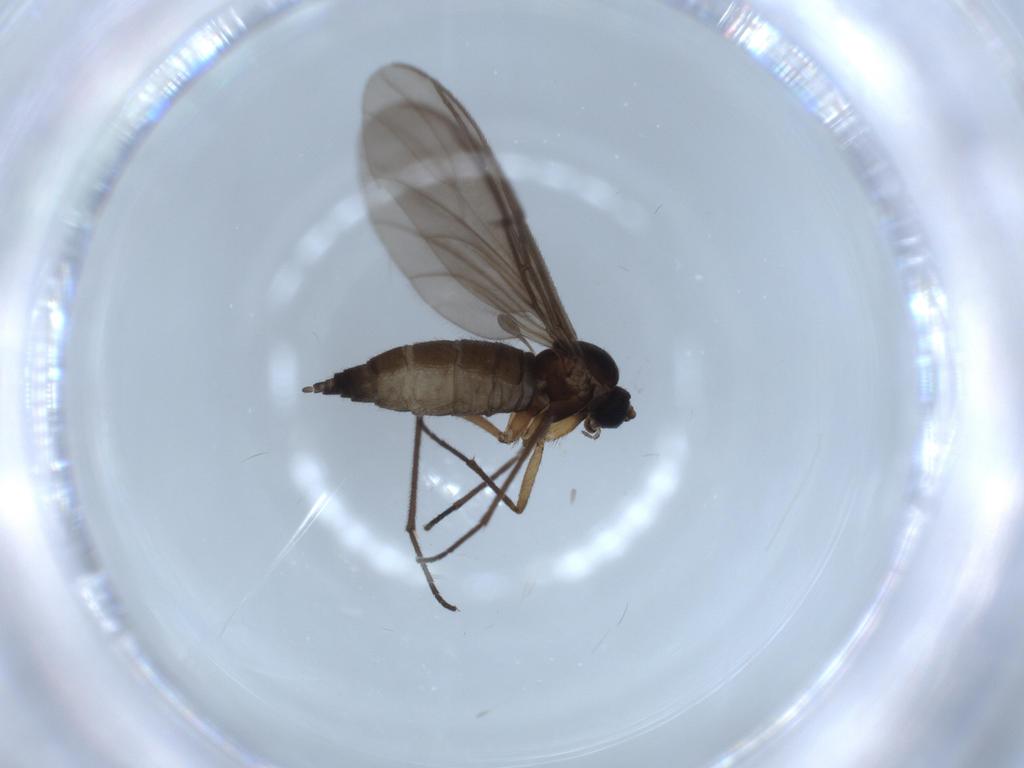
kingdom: Animalia
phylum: Arthropoda
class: Insecta
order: Diptera
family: Sciaridae
